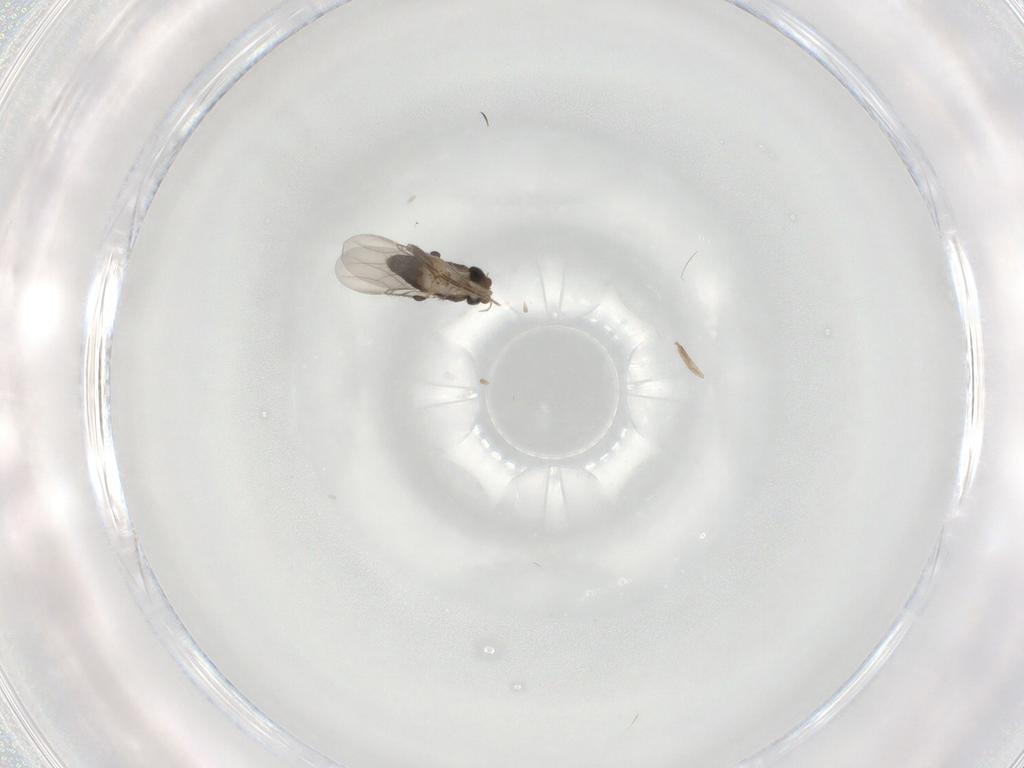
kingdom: Animalia
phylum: Arthropoda
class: Insecta
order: Diptera
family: Phoridae
